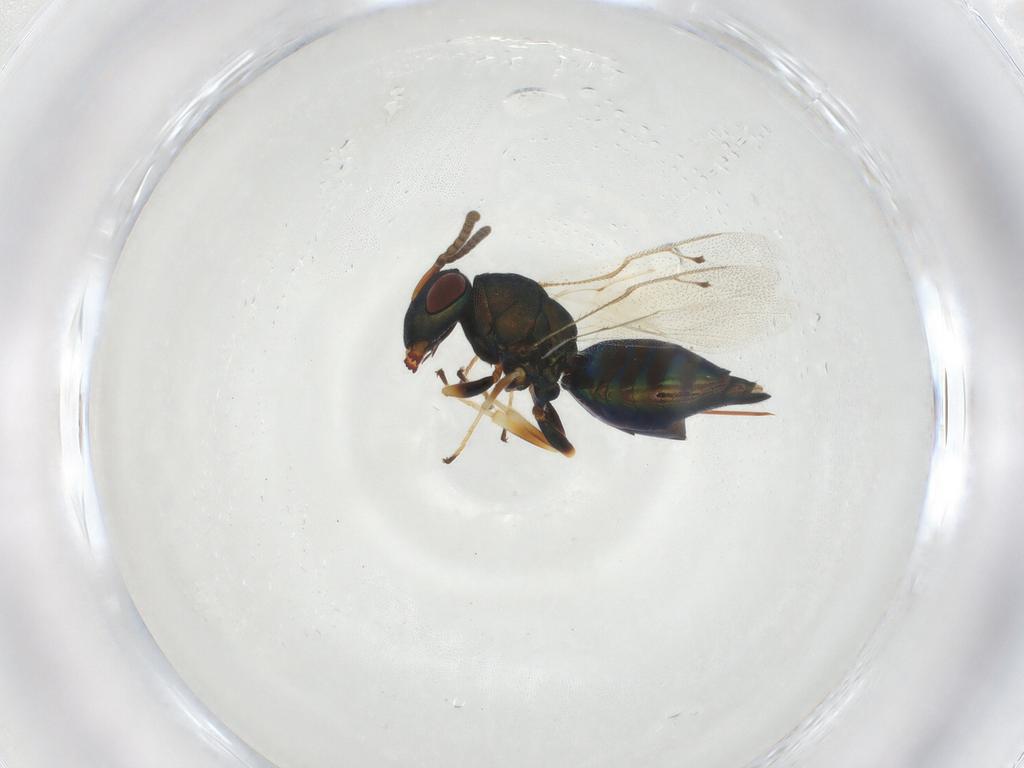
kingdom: Animalia
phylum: Arthropoda
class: Insecta
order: Hymenoptera
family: Pteromalidae
